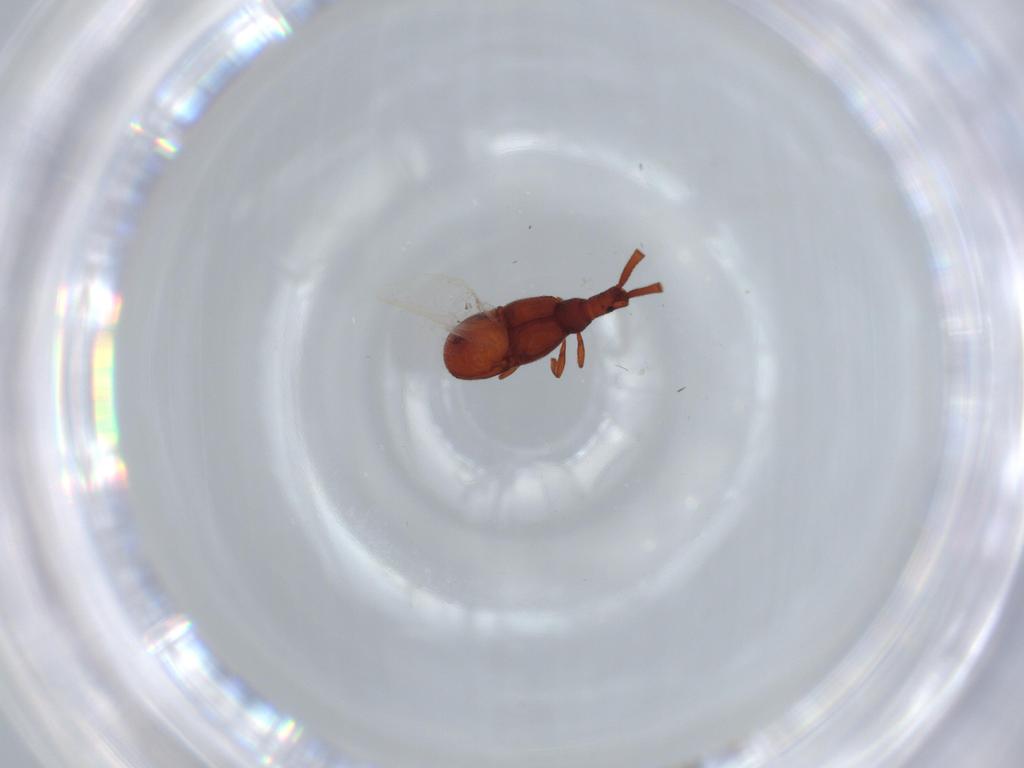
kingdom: Animalia
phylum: Arthropoda
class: Insecta
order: Coleoptera
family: Staphylinidae
